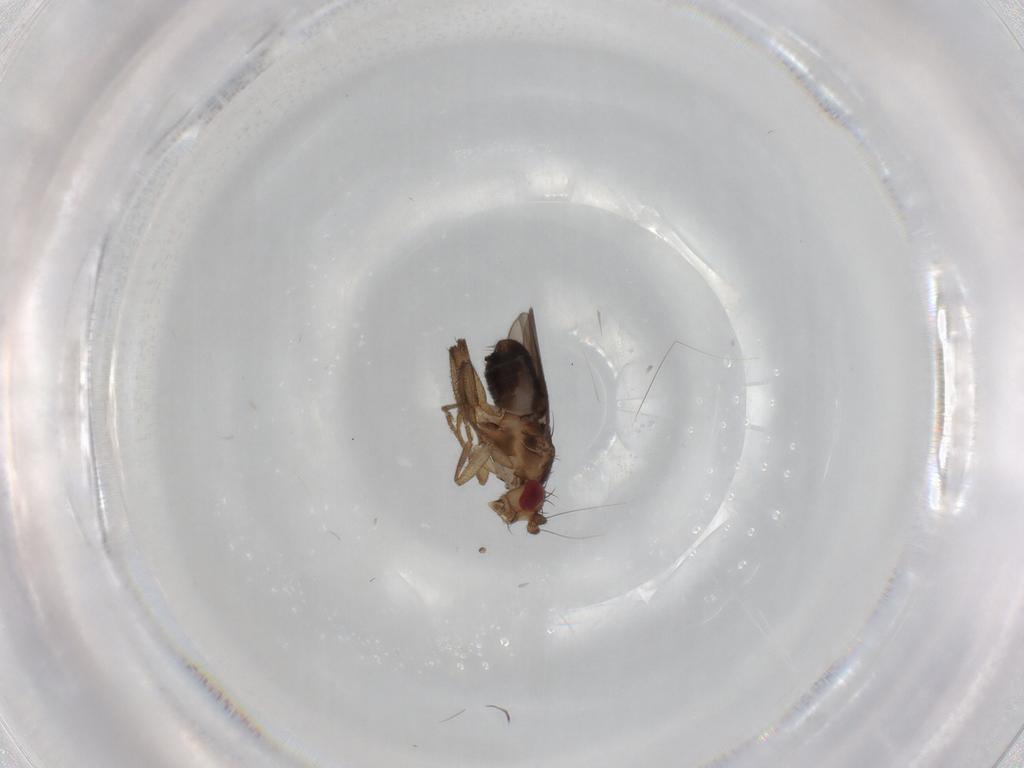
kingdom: Animalia
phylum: Arthropoda
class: Insecta
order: Diptera
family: Sphaeroceridae
